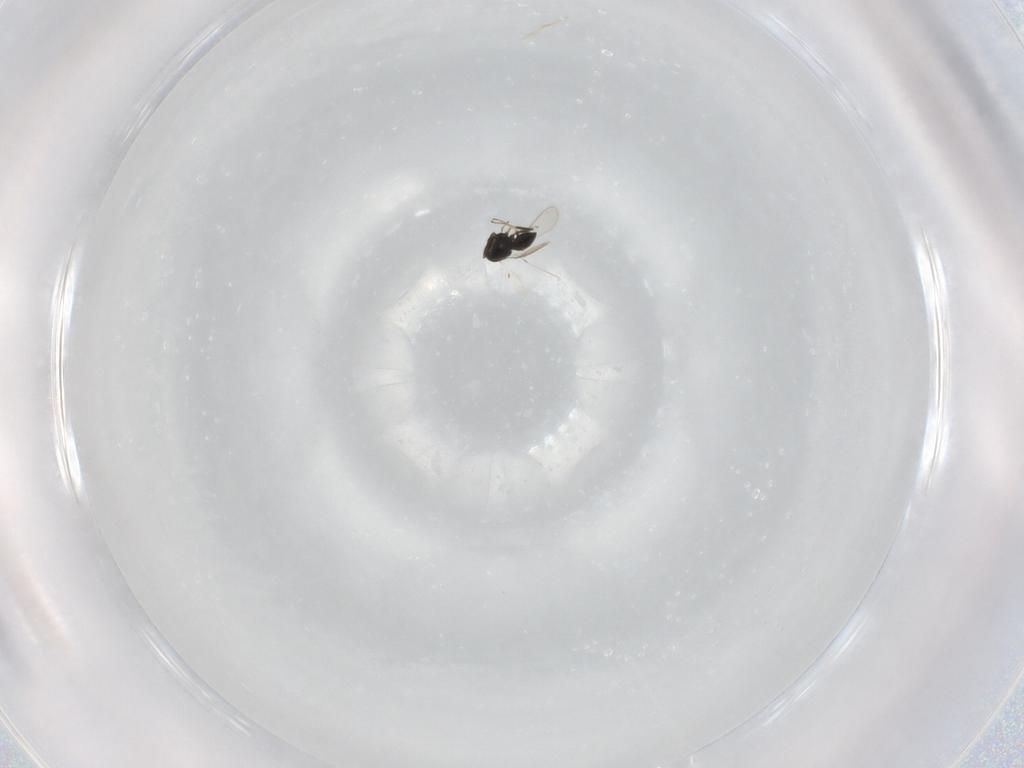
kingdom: Animalia
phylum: Arthropoda
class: Insecta
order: Hymenoptera
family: Scelionidae
